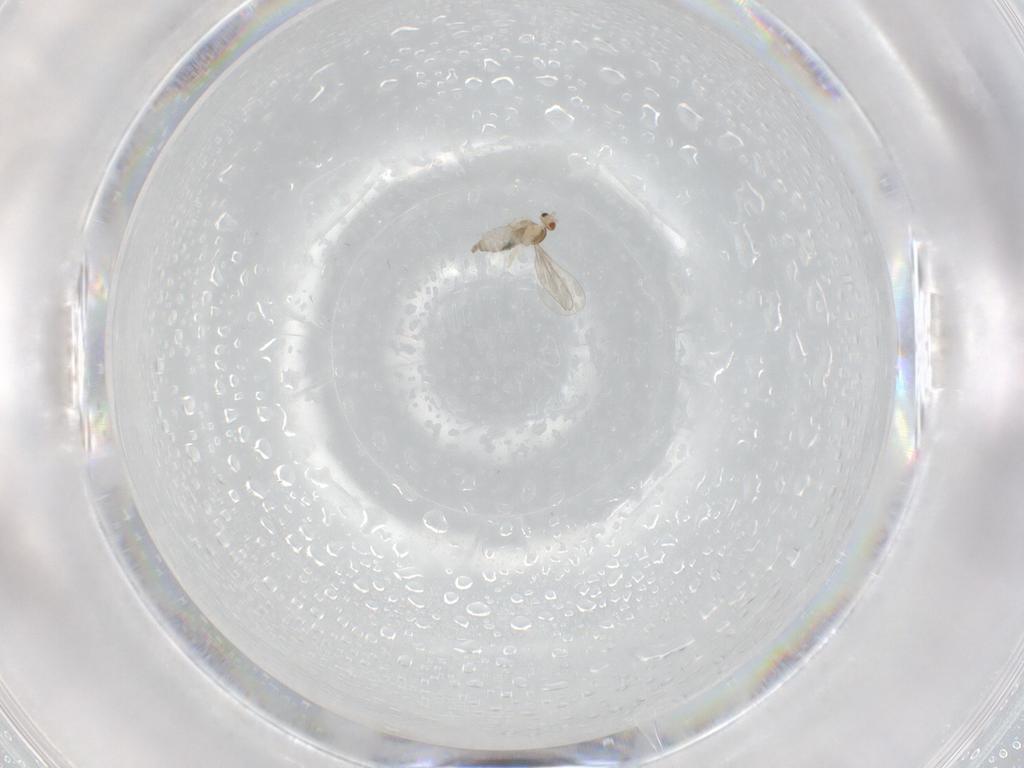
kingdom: Animalia
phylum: Arthropoda
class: Insecta
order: Diptera
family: Cecidomyiidae
